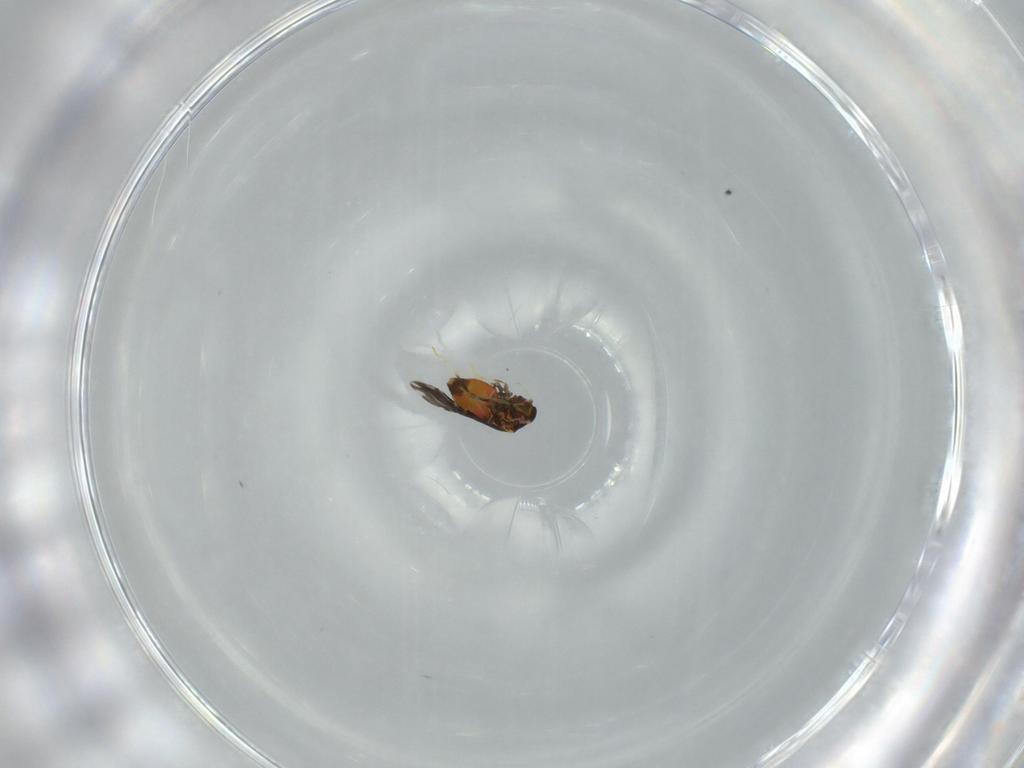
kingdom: Animalia
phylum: Arthropoda
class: Insecta
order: Hemiptera
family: Aleyrodidae
